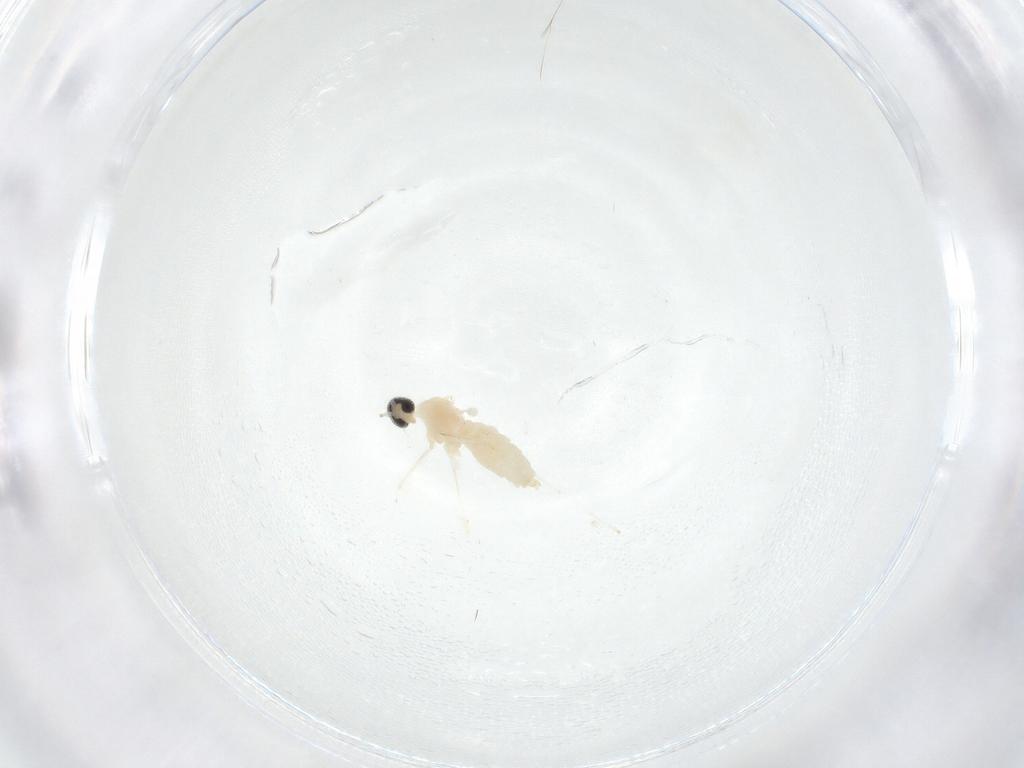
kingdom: Animalia
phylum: Arthropoda
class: Insecta
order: Diptera
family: Cecidomyiidae
